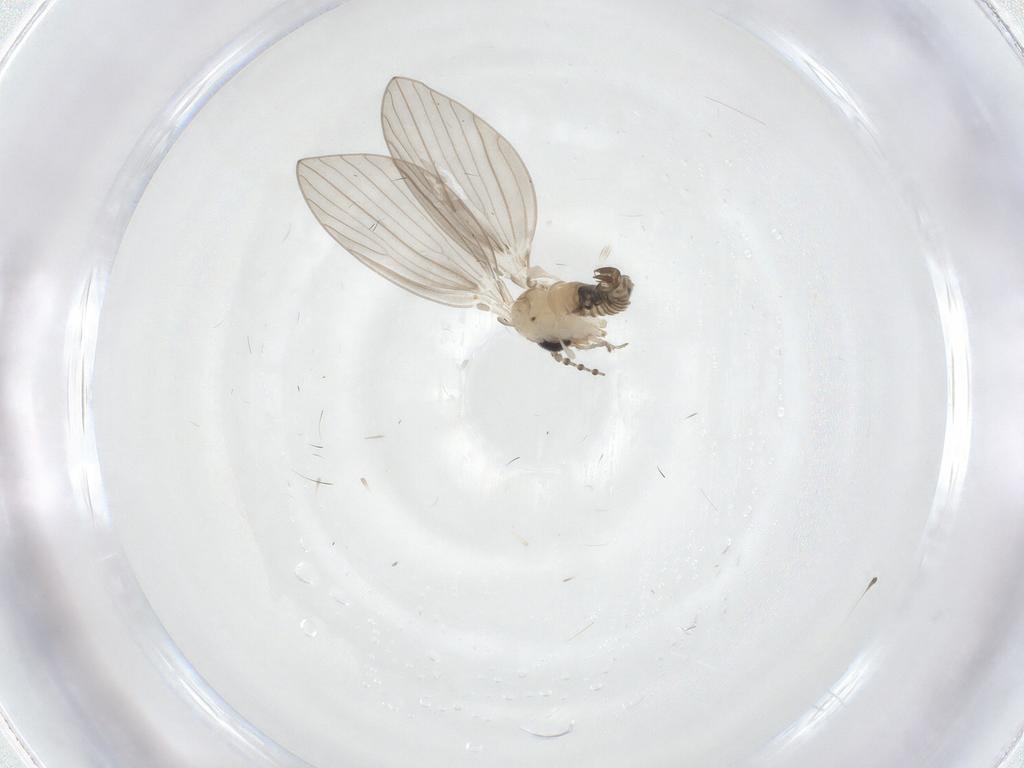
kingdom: Animalia
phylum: Arthropoda
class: Insecta
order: Diptera
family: Psychodidae
